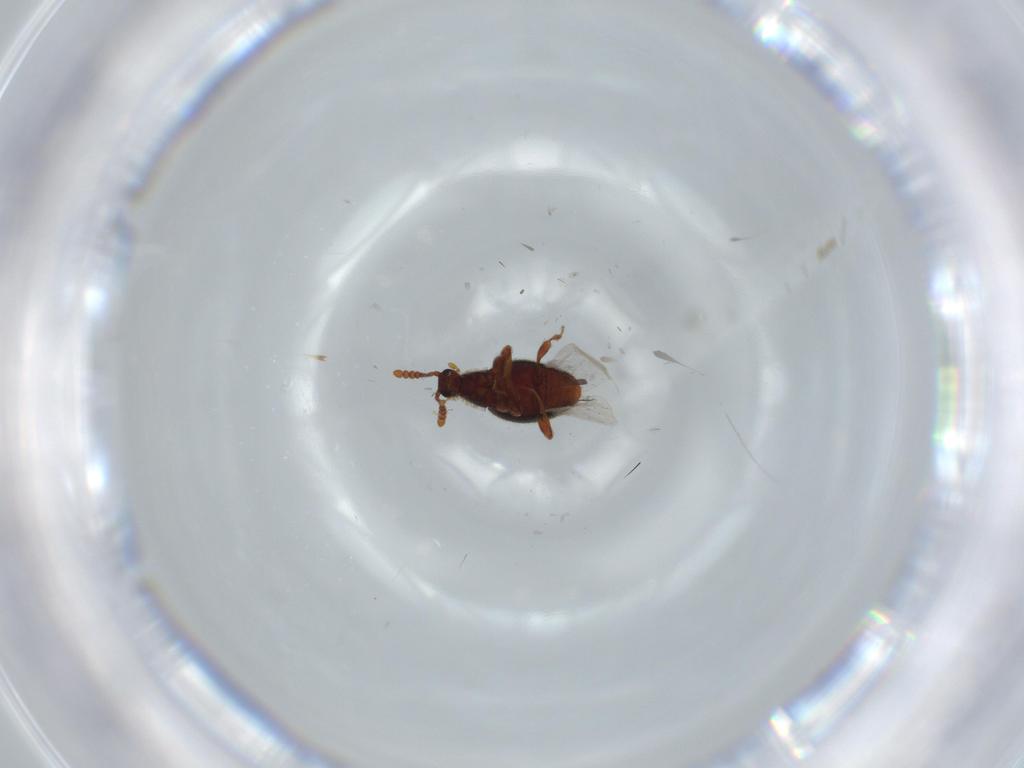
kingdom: Animalia
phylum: Arthropoda
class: Insecta
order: Coleoptera
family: Staphylinidae
